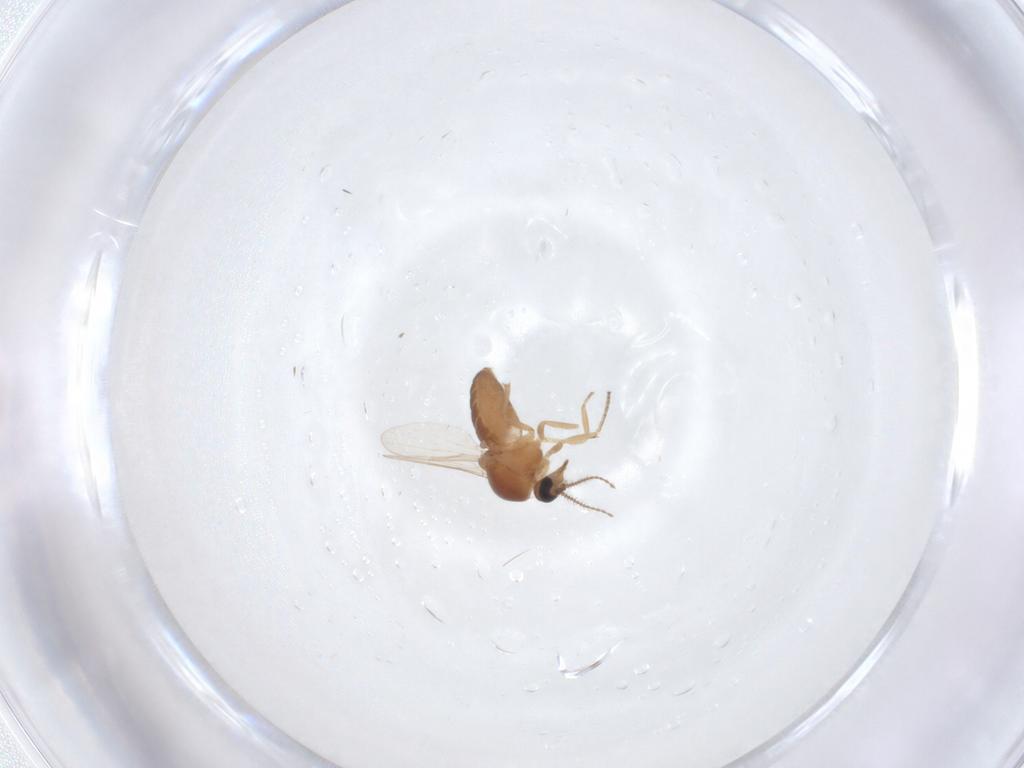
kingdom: Animalia
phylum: Arthropoda
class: Insecta
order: Diptera
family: Ceratopogonidae
